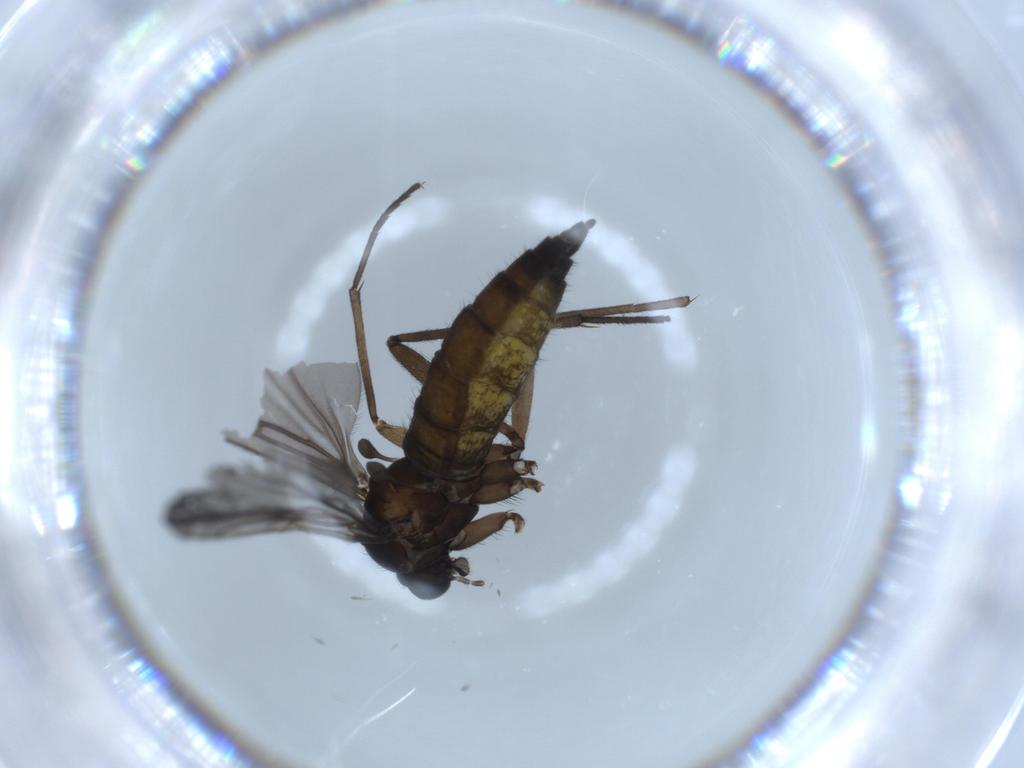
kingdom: Animalia
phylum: Arthropoda
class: Insecta
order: Diptera
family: Sciaridae
